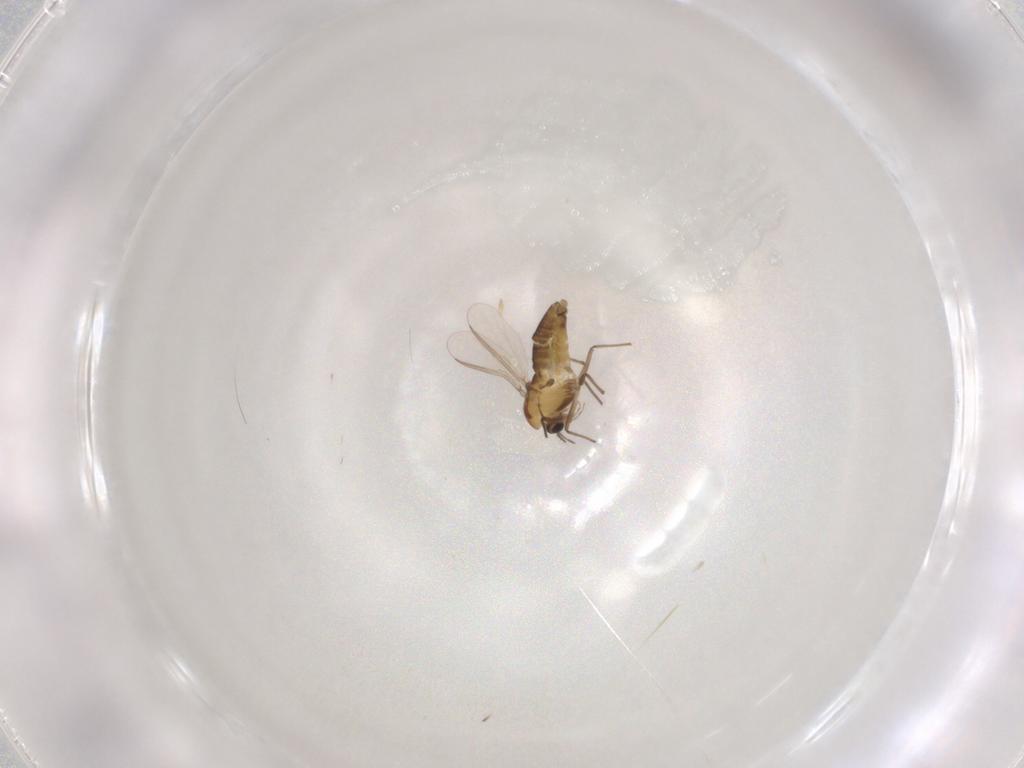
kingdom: Animalia
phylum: Arthropoda
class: Insecta
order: Diptera
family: Chironomidae
